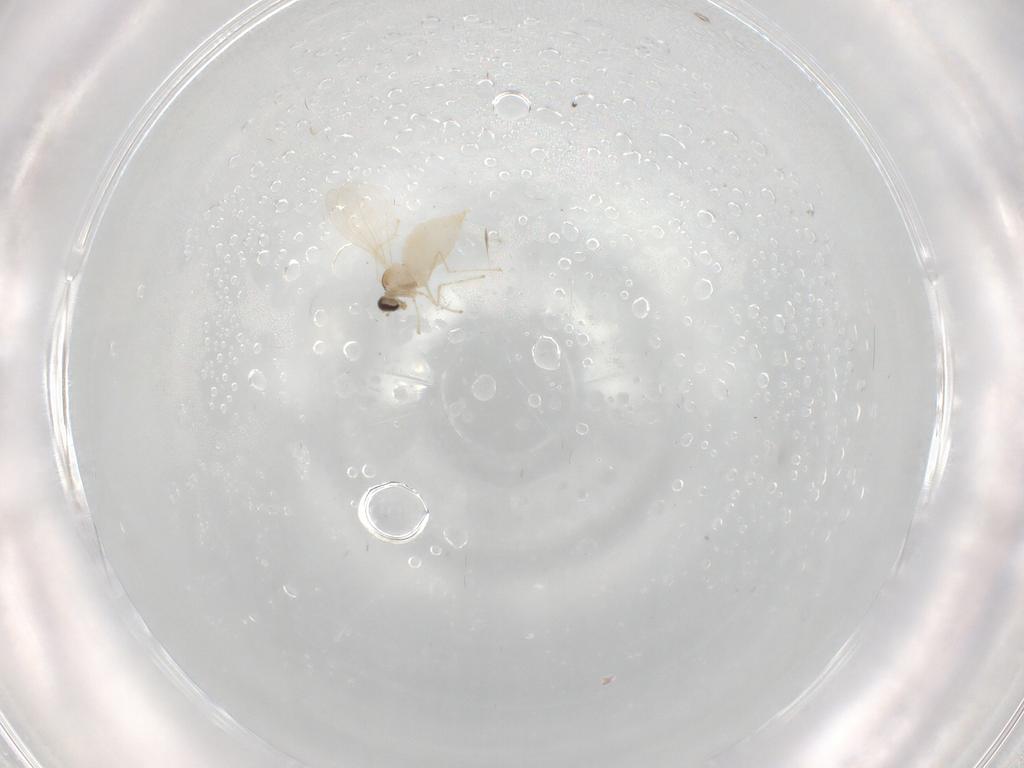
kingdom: Animalia
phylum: Arthropoda
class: Insecta
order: Diptera
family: Cecidomyiidae
